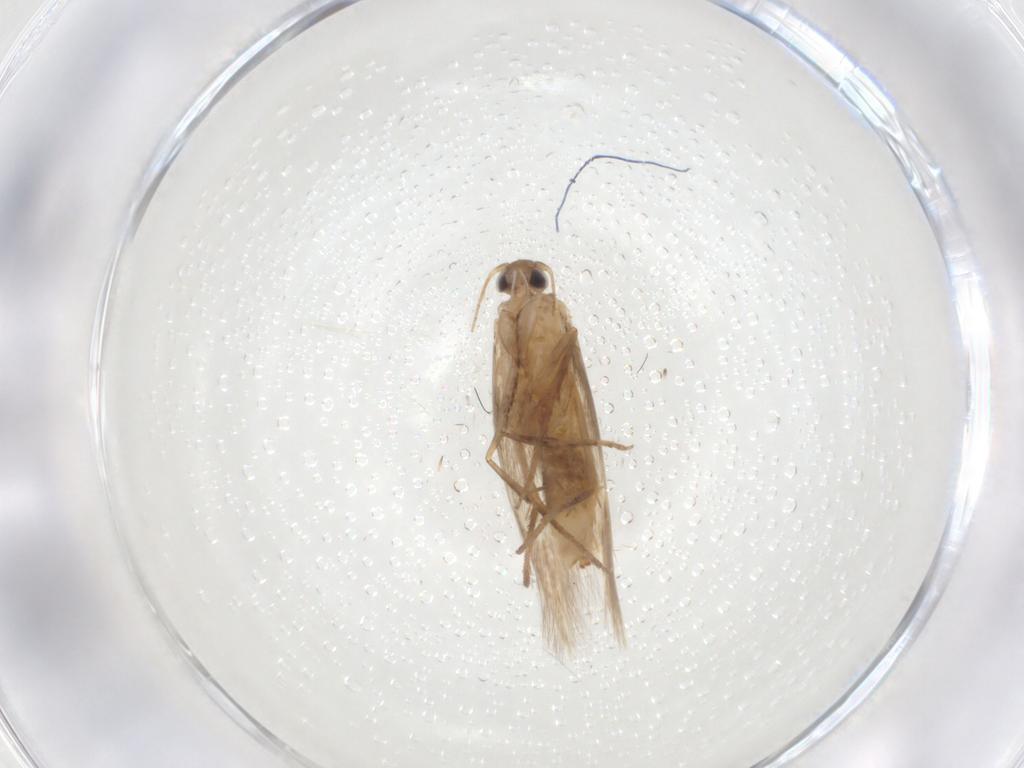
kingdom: Animalia
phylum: Arthropoda
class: Insecta
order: Lepidoptera
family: Tischeriidae
